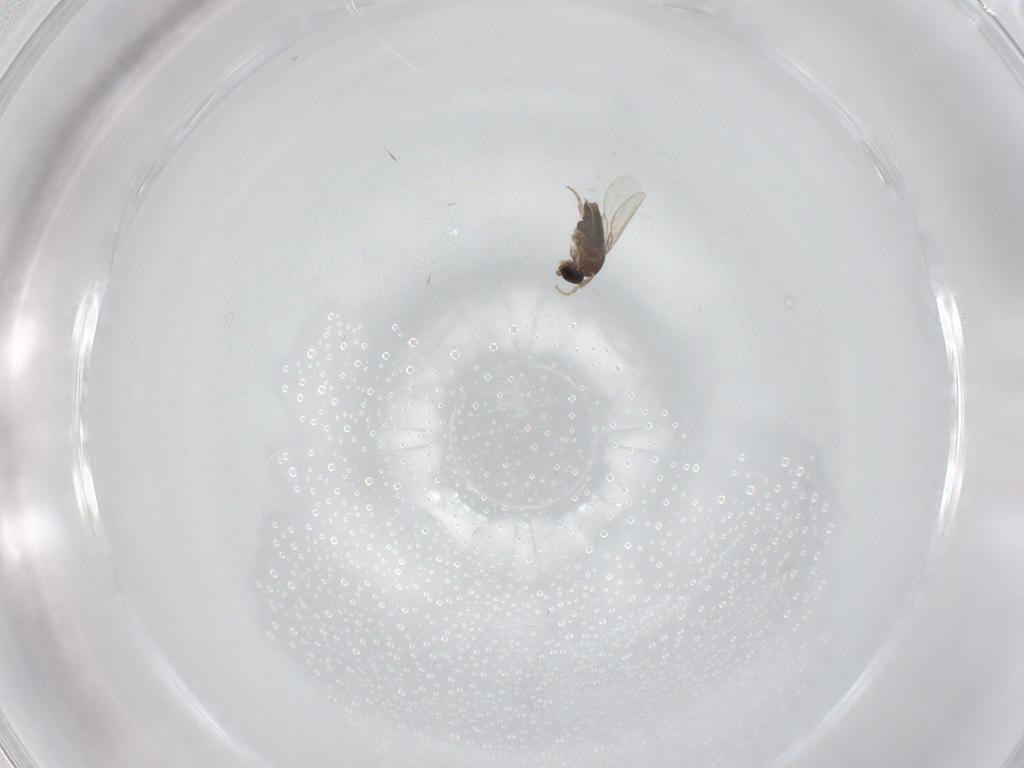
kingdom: Animalia
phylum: Arthropoda
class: Insecta
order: Diptera
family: Phoridae
